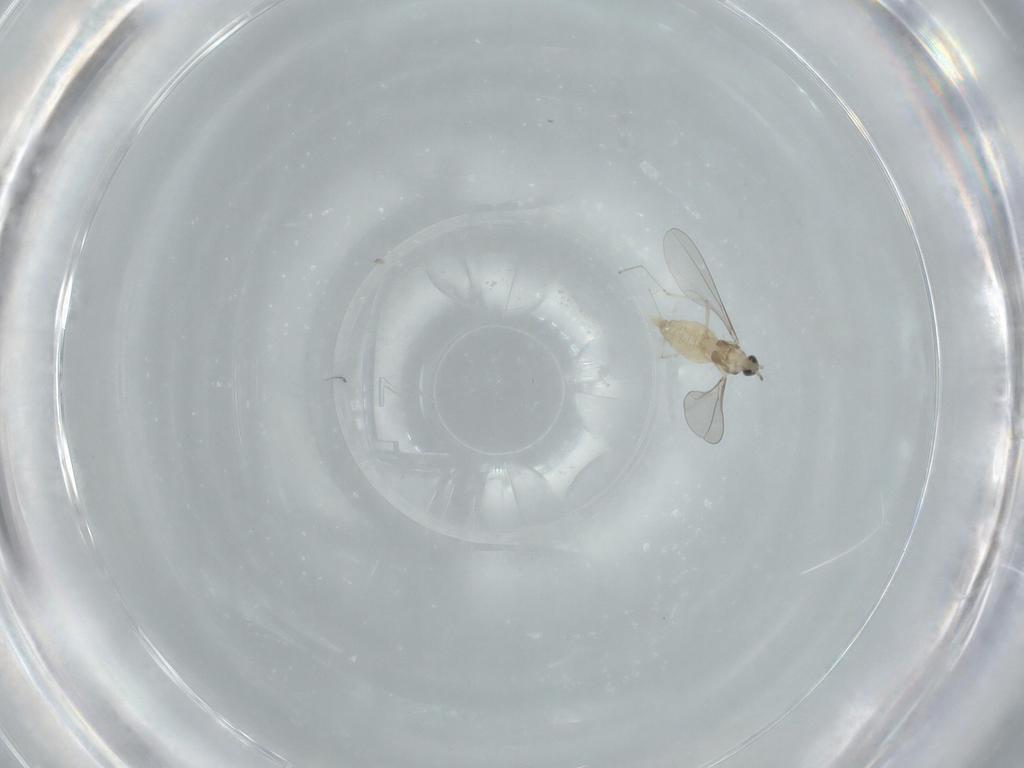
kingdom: Animalia
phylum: Arthropoda
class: Insecta
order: Diptera
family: Cecidomyiidae
